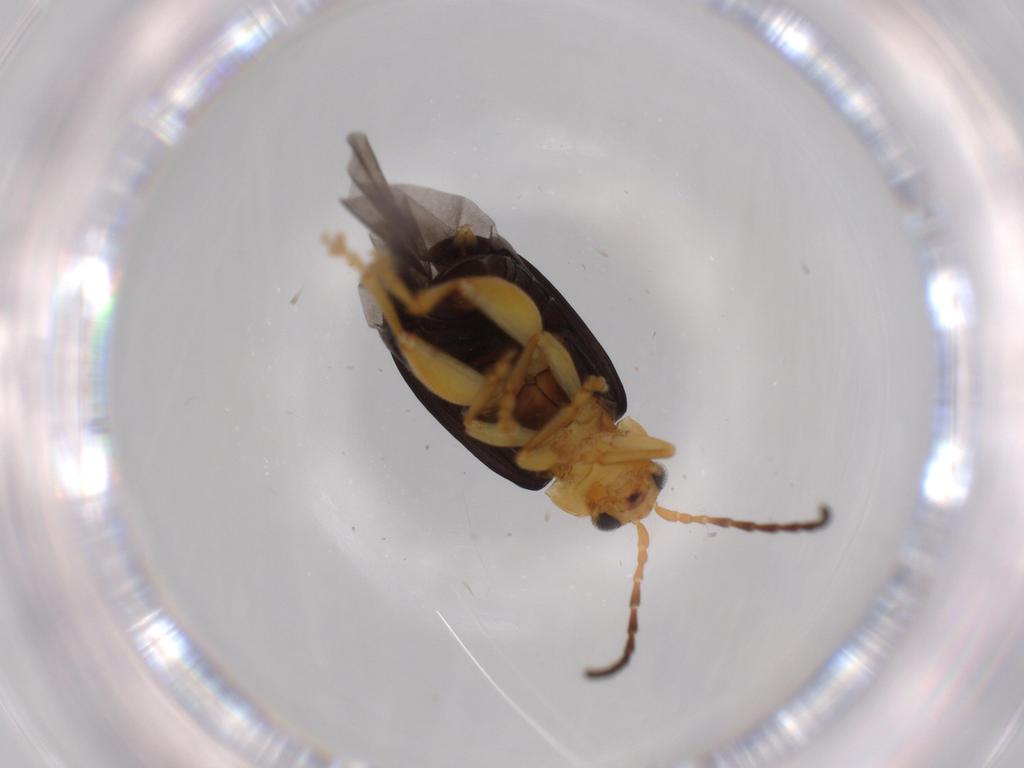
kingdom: Animalia
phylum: Arthropoda
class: Insecta
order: Coleoptera
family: Chrysomelidae
